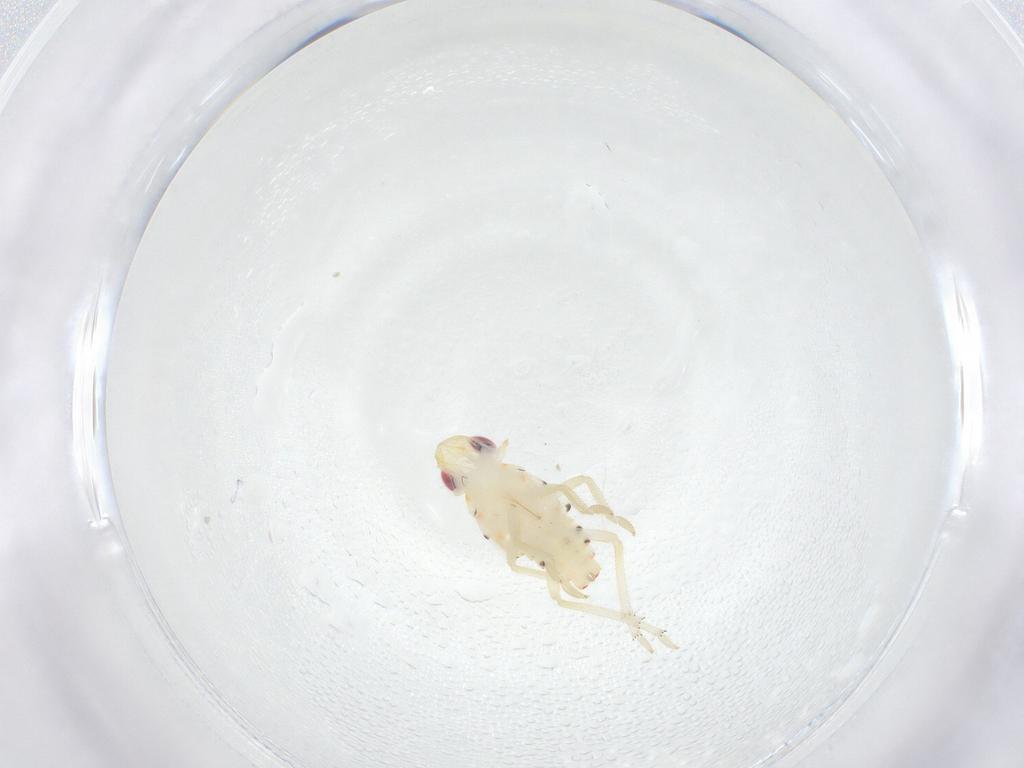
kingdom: Animalia
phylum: Arthropoda
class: Insecta
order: Hemiptera
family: Tropiduchidae
